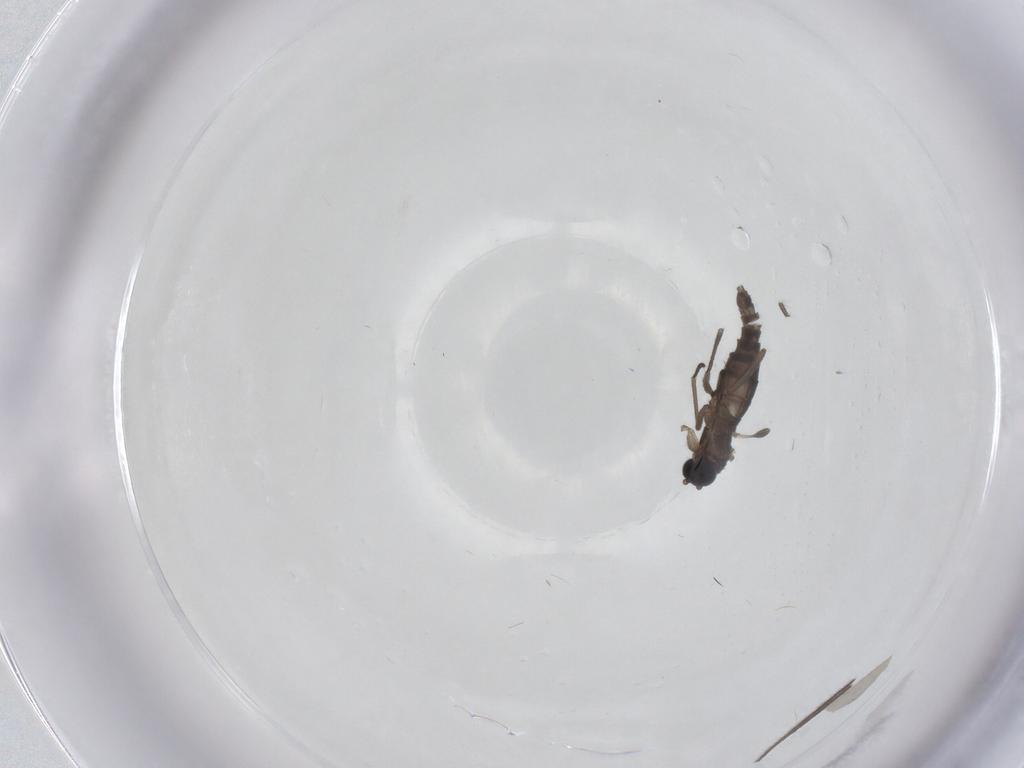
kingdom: Animalia
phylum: Arthropoda
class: Insecta
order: Diptera
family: Sciaridae
